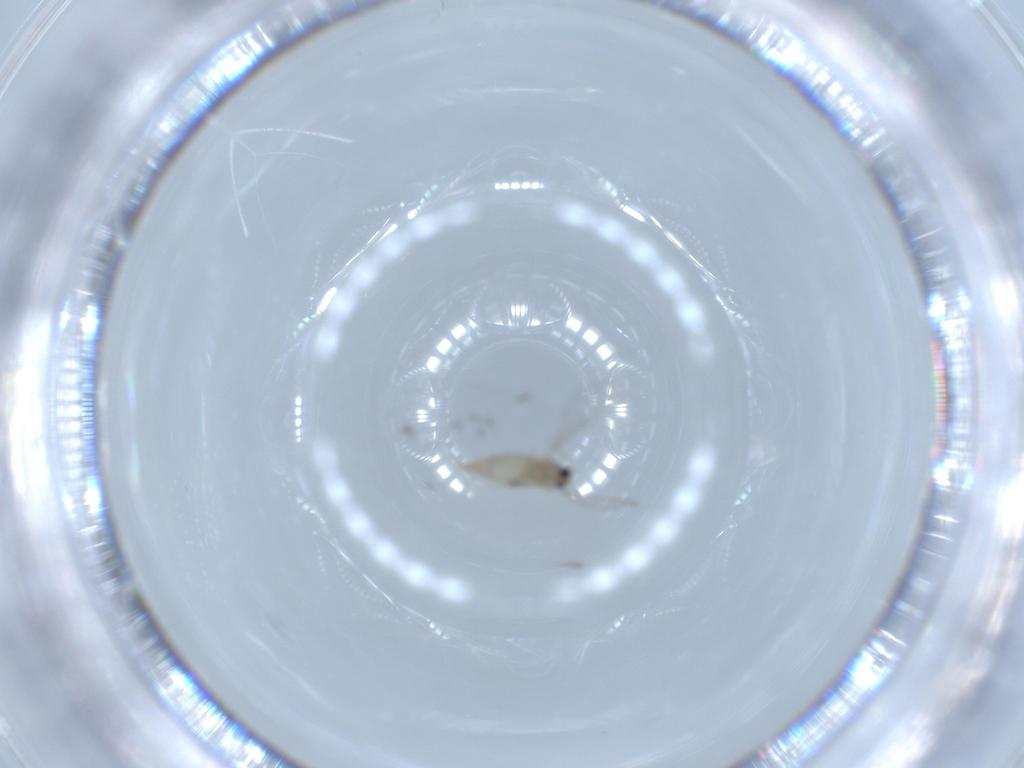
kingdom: Animalia
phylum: Arthropoda
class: Insecta
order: Diptera
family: Cecidomyiidae
